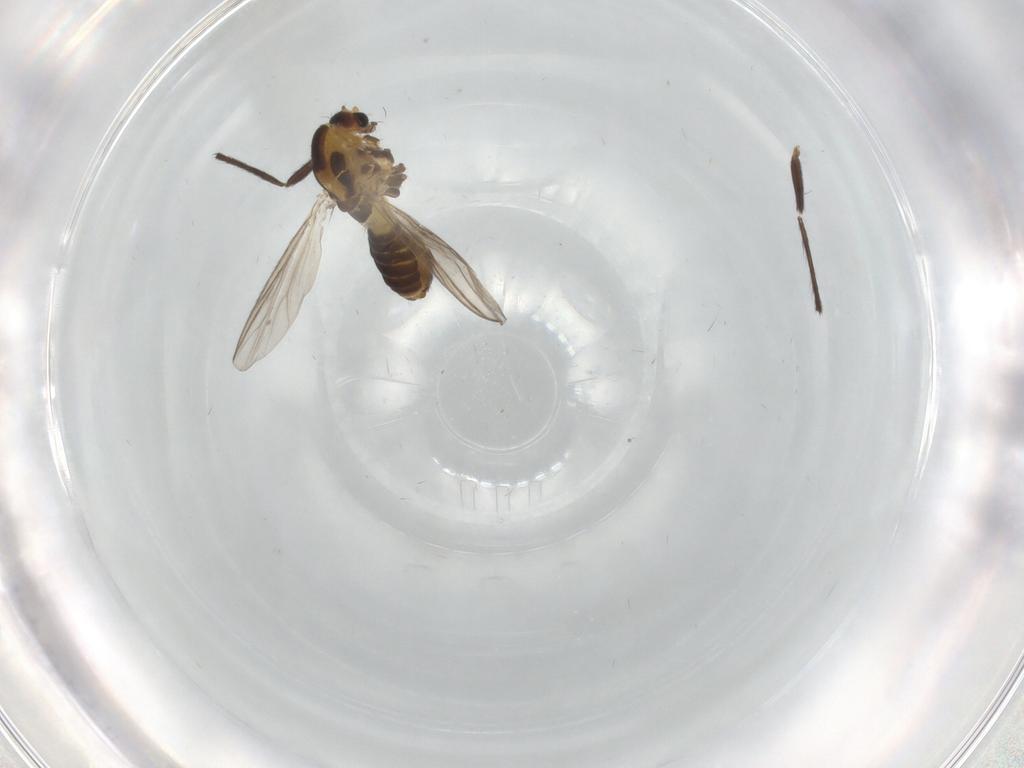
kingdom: Animalia
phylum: Arthropoda
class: Insecta
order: Diptera
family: Chironomidae
